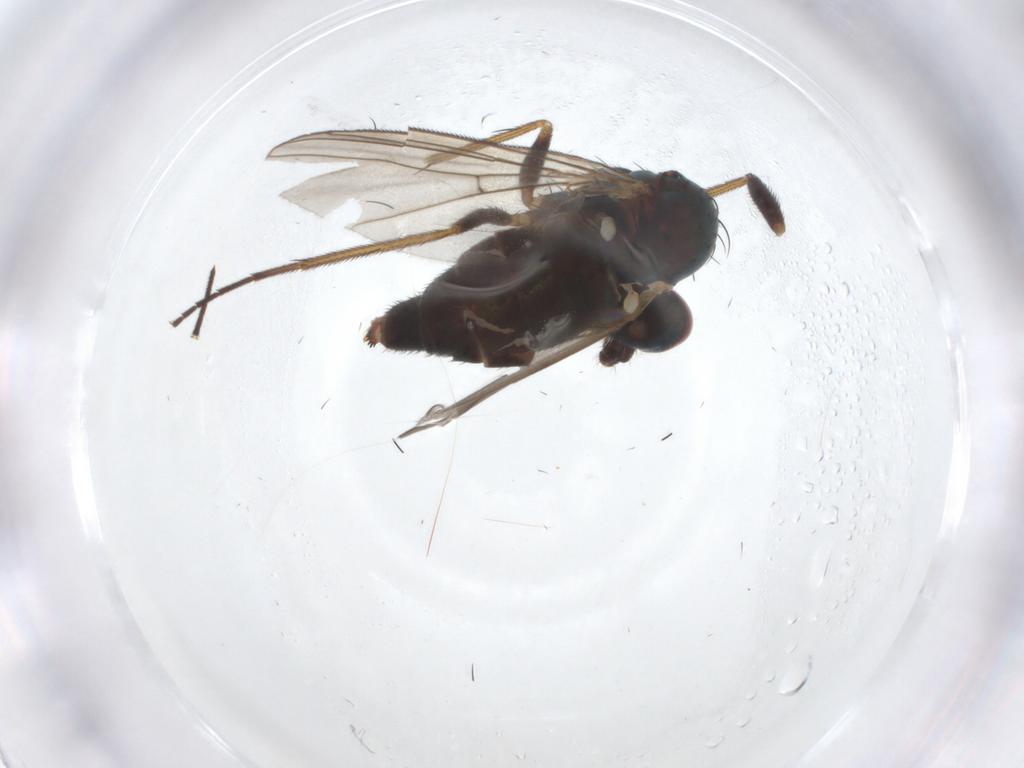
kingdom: Animalia
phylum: Arthropoda
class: Insecta
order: Diptera
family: Dolichopodidae
